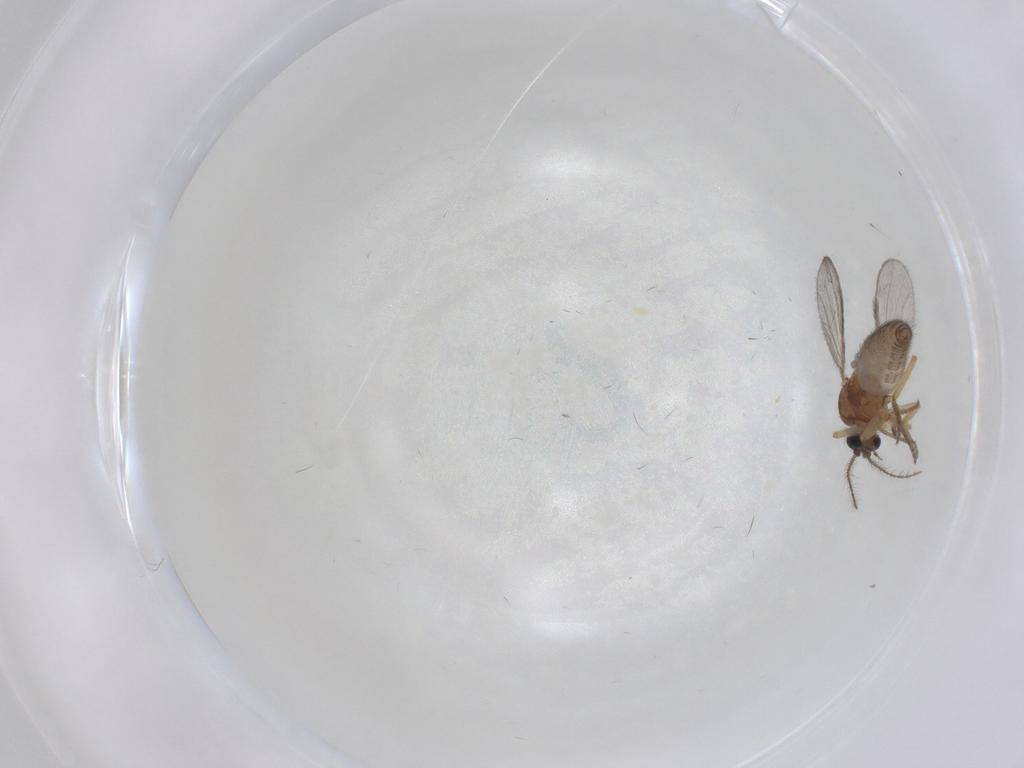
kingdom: Animalia
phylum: Arthropoda
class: Insecta
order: Diptera
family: Ceratopogonidae
